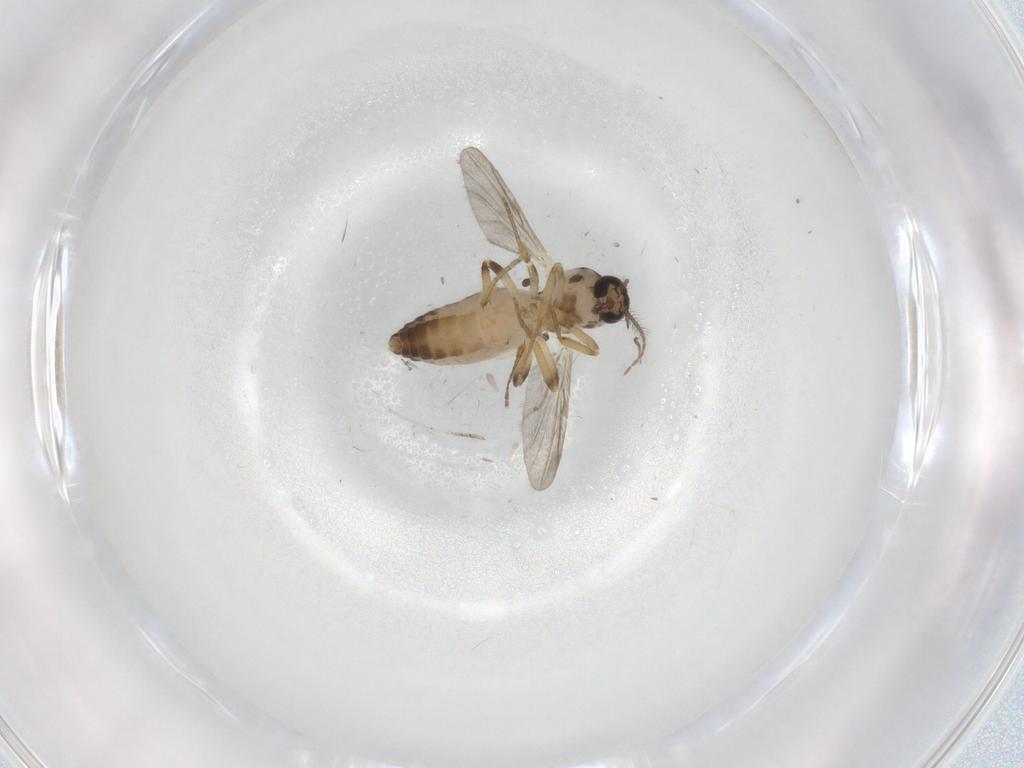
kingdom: Animalia
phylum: Arthropoda
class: Insecta
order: Diptera
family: Ceratopogonidae
